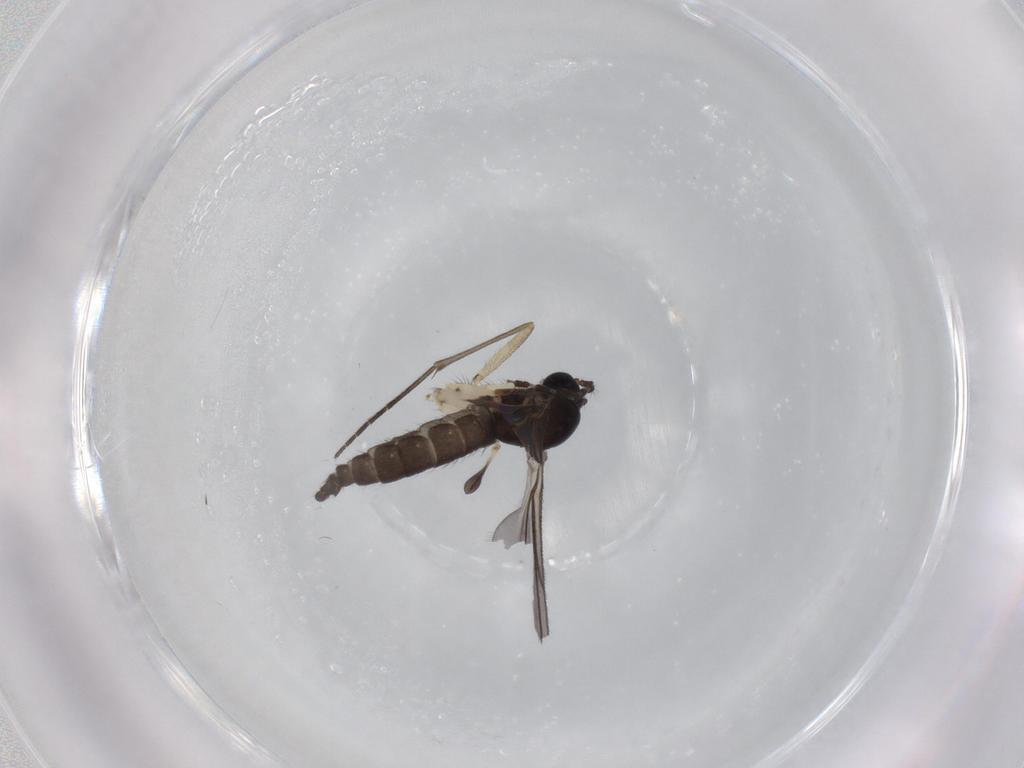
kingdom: Animalia
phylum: Arthropoda
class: Insecta
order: Diptera
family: Sciaridae
